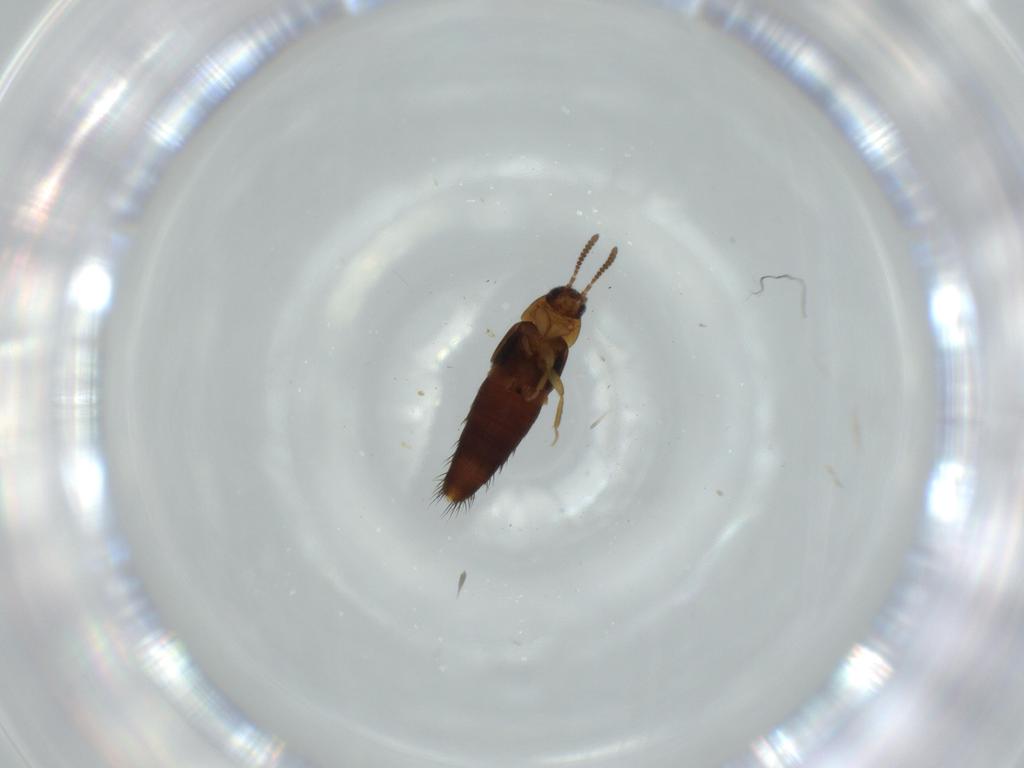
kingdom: Animalia
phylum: Arthropoda
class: Insecta
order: Coleoptera
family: Staphylinidae
